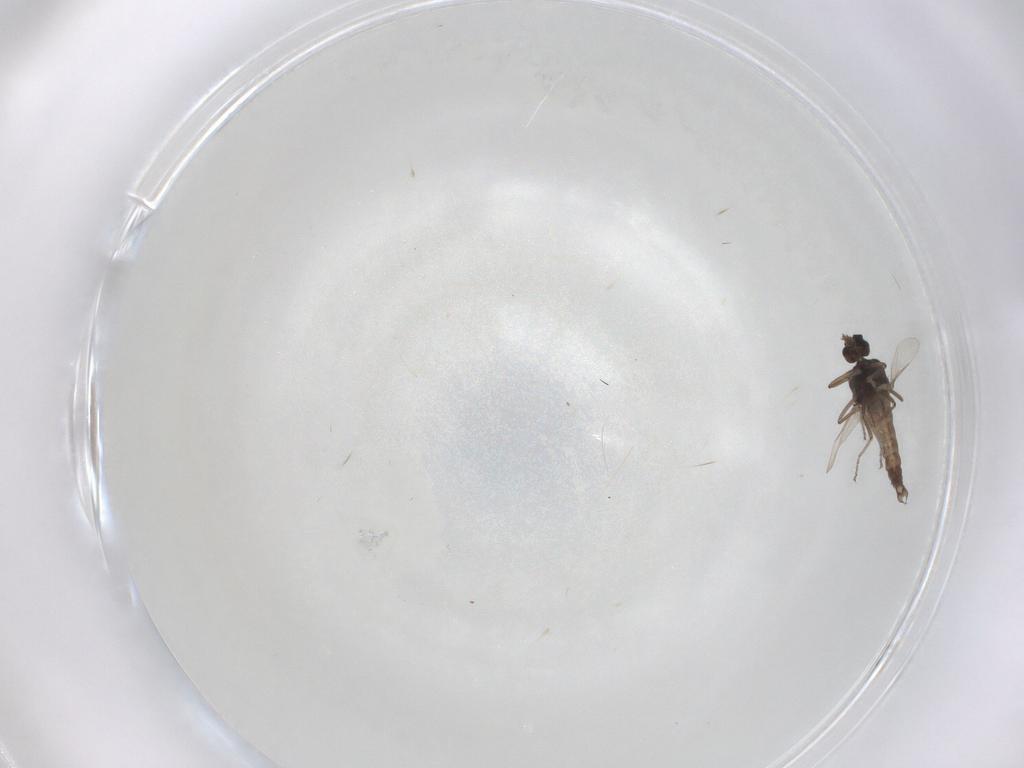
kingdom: Animalia
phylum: Arthropoda
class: Insecta
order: Diptera
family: Ceratopogonidae
